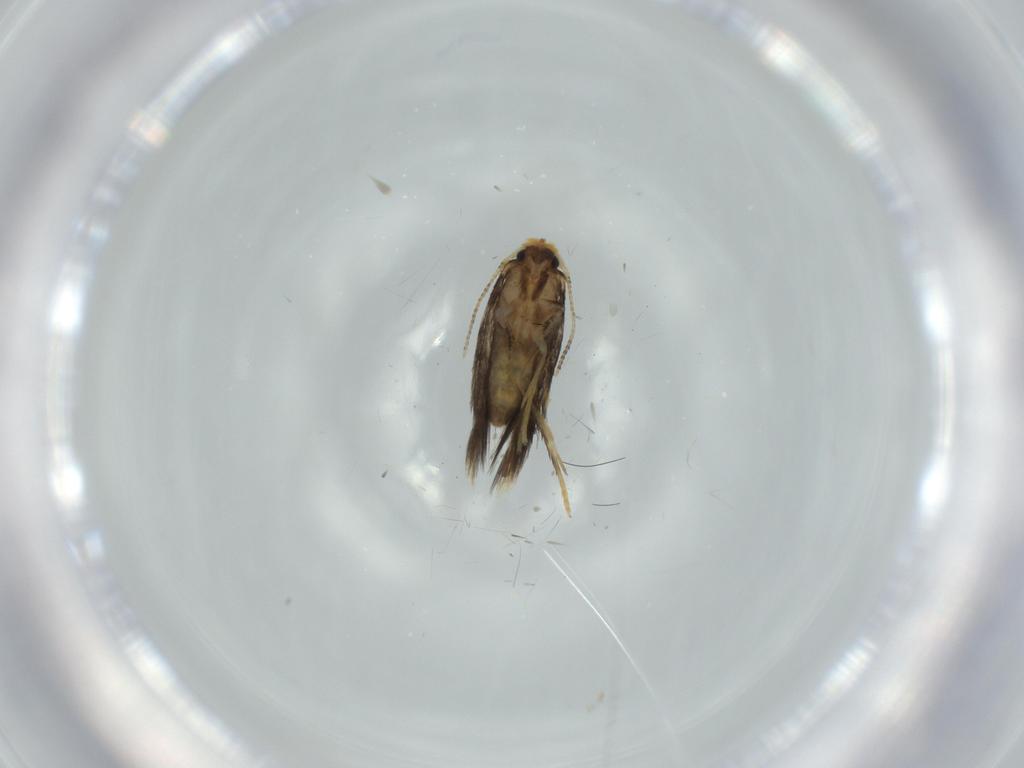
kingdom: Animalia
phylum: Arthropoda
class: Insecta
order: Lepidoptera
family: Nepticulidae
